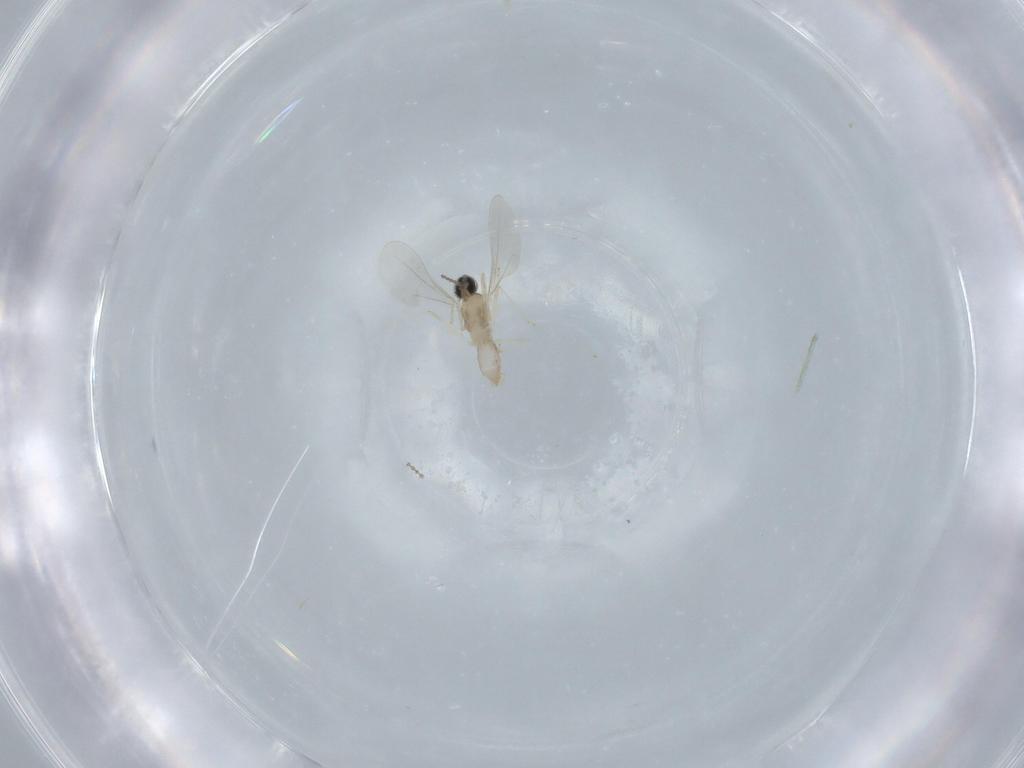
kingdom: Animalia
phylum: Arthropoda
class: Insecta
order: Diptera
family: Cecidomyiidae
